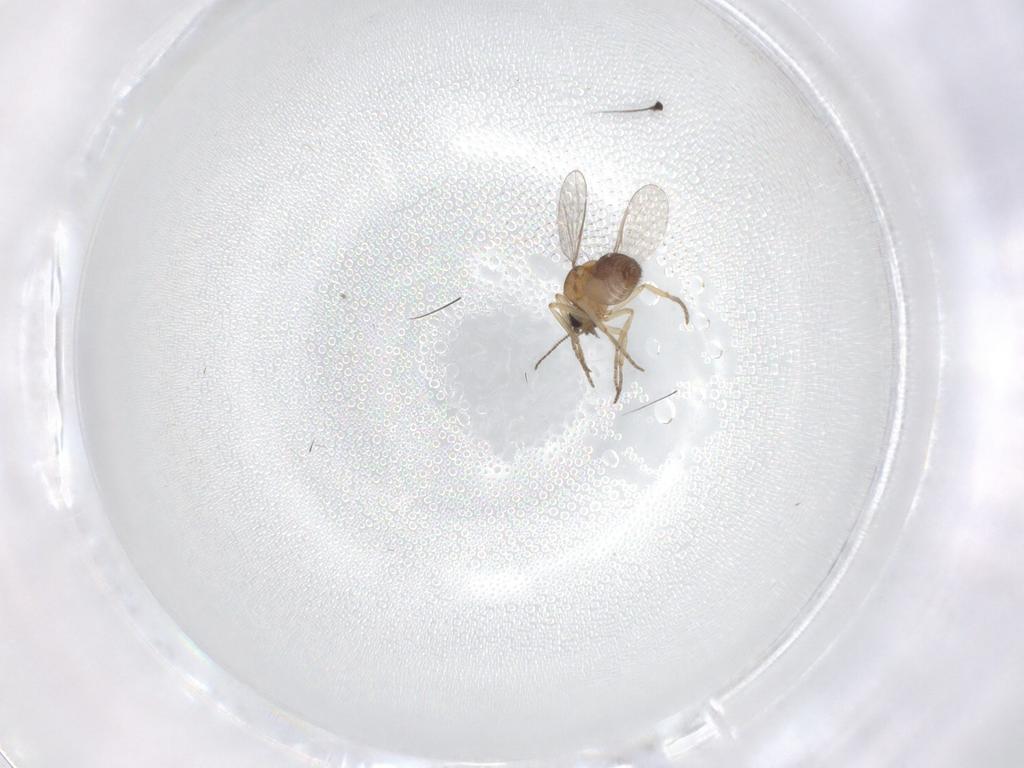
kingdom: Animalia
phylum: Arthropoda
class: Insecta
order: Diptera
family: Dolichopodidae
